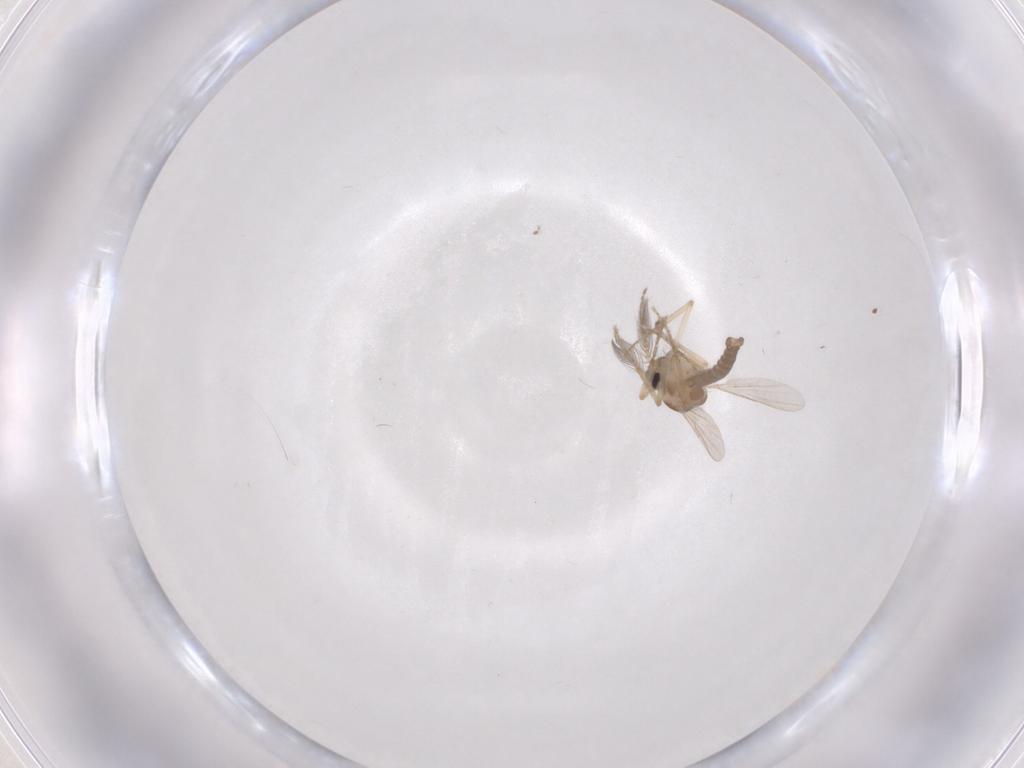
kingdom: Animalia
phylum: Arthropoda
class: Insecta
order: Diptera
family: Ceratopogonidae
